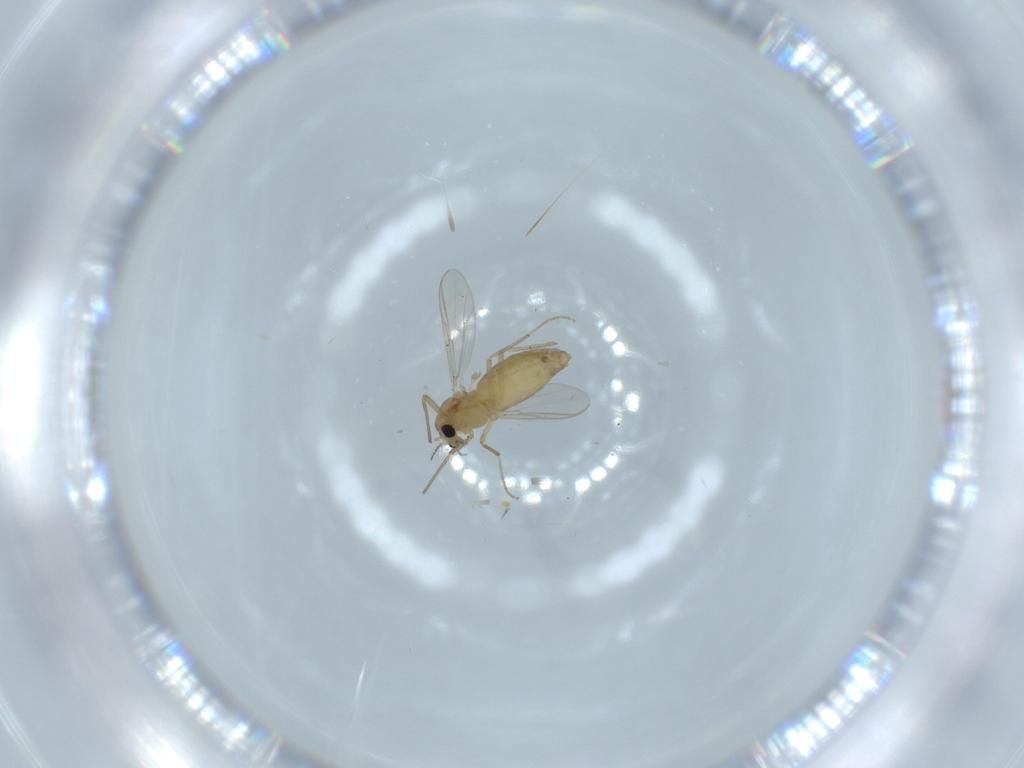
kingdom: Animalia
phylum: Arthropoda
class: Insecta
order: Diptera
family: Chironomidae
